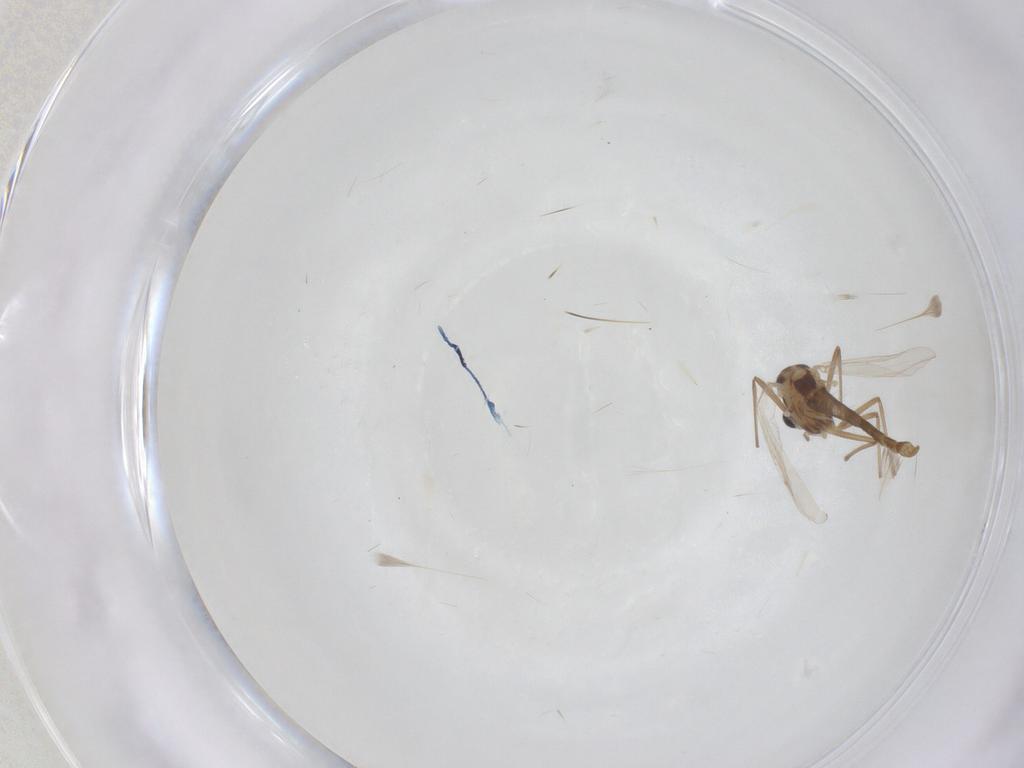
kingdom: Animalia
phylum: Arthropoda
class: Insecta
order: Diptera
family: Chironomidae
